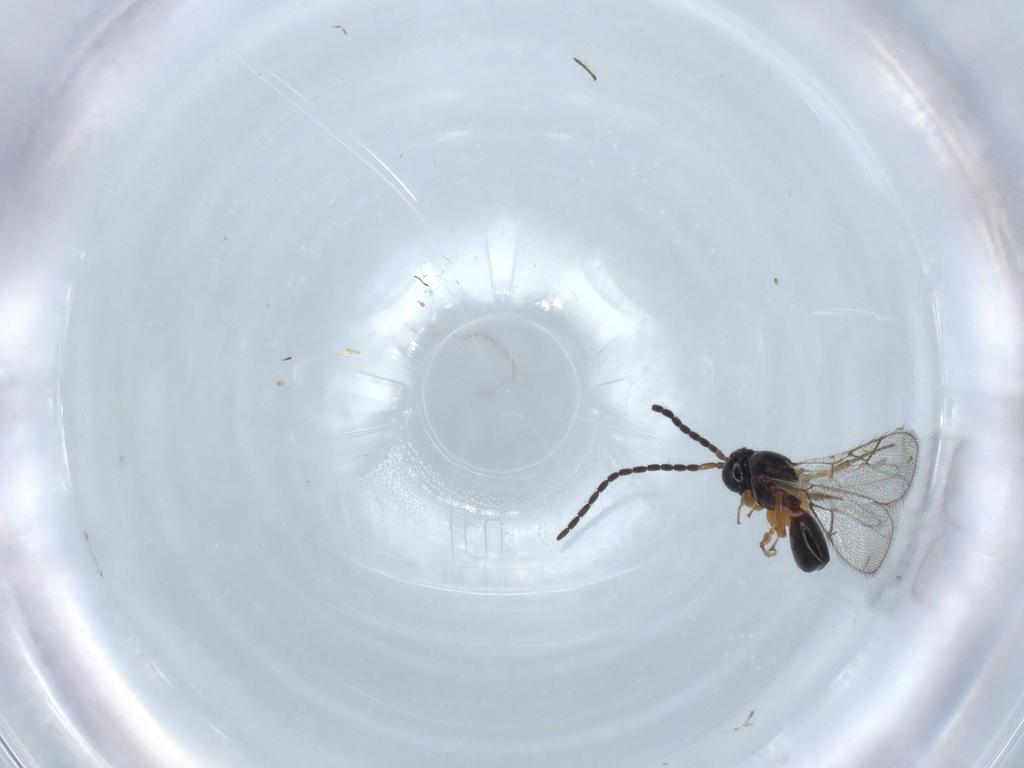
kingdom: Animalia
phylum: Arthropoda
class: Insecta
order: Hymenoptera
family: Figitidae
